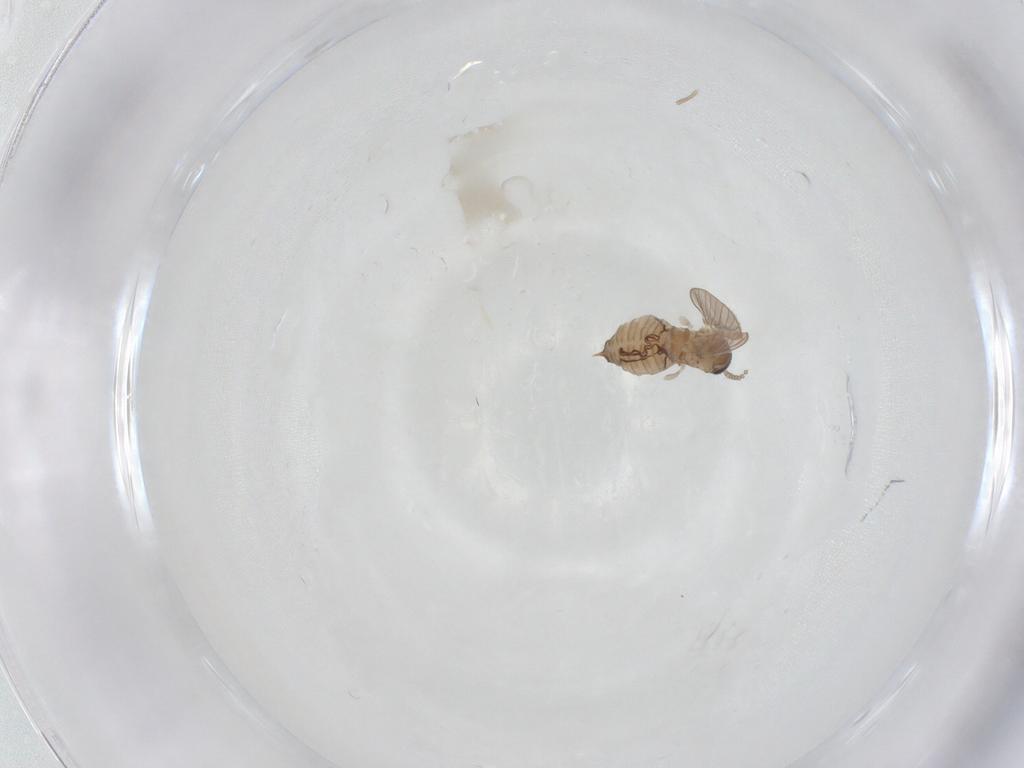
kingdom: Animalia
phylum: Arthropoda
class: Insecta
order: Diptera
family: Psychodidae
